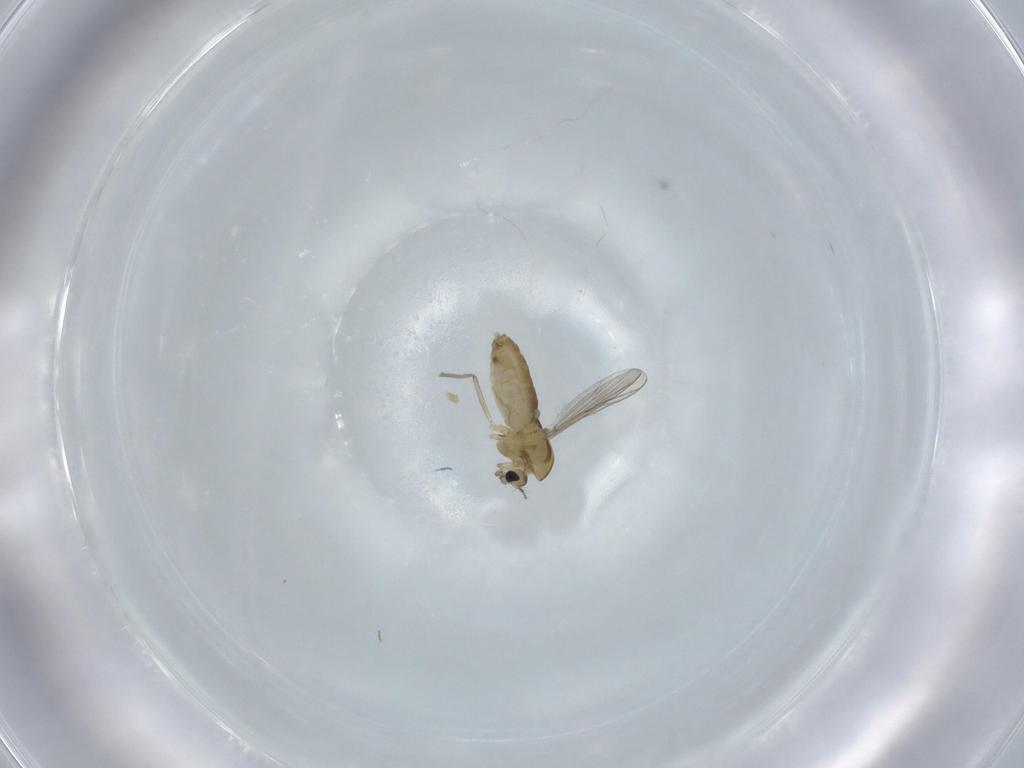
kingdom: Animalia
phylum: Arthropoda
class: Insecta
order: Diptera
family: Chironomidae
